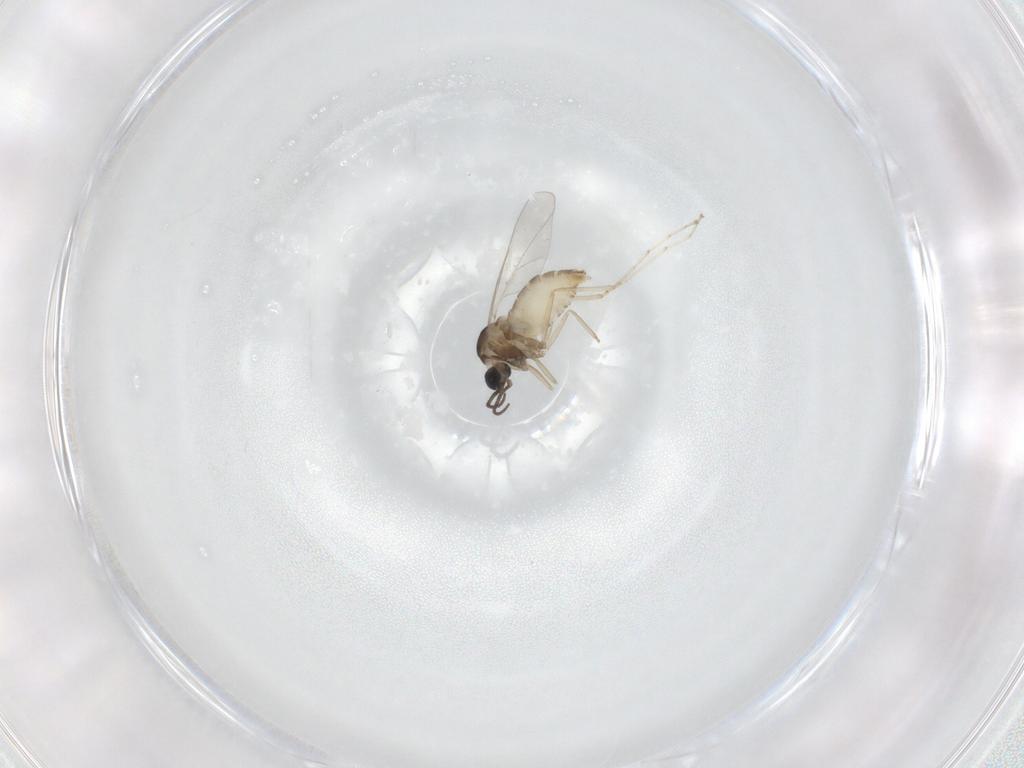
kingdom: Animalia
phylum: Arthropoda
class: Insecta
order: Diptera
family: Cecidomyiidae
